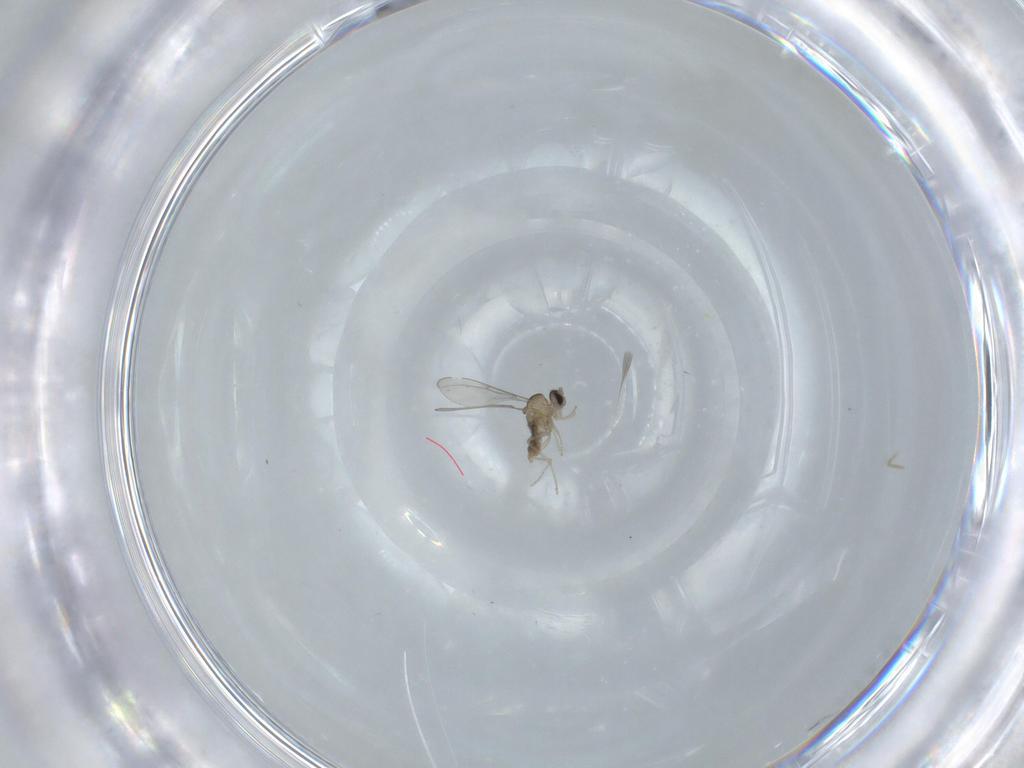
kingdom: Animalia
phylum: Arthropoda
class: Insecta
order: Diptera
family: Cecidomyiidae
